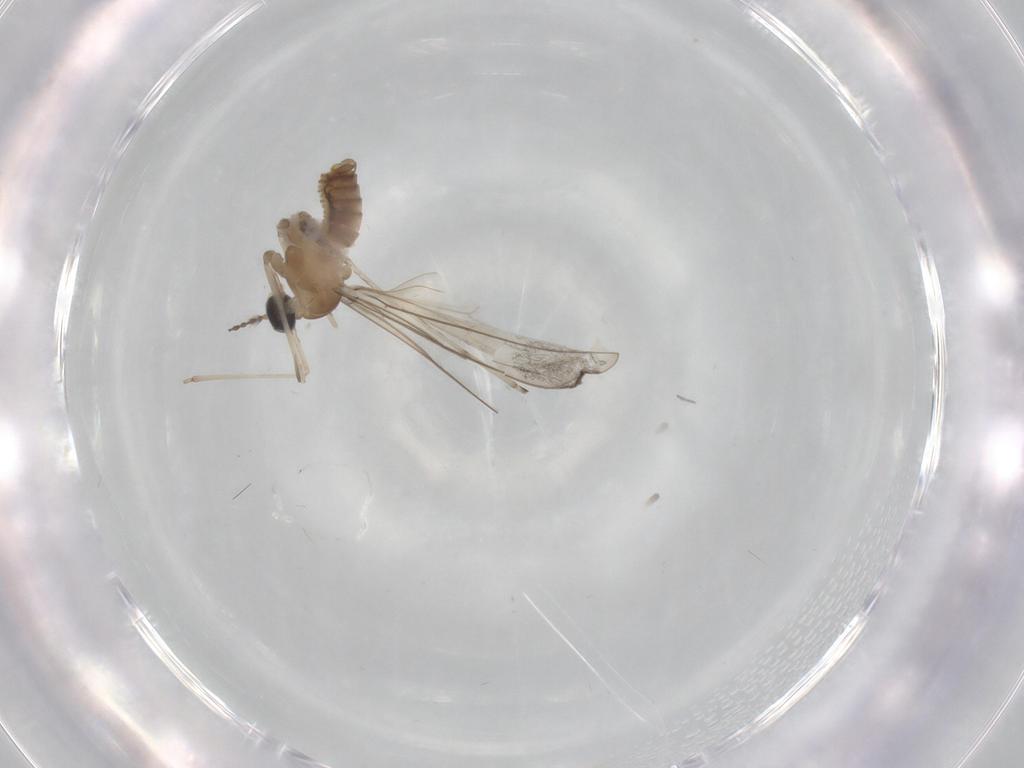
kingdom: Animalia
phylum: Arthropoda
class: Insecta
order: Diptera
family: Cecidomyiidae
